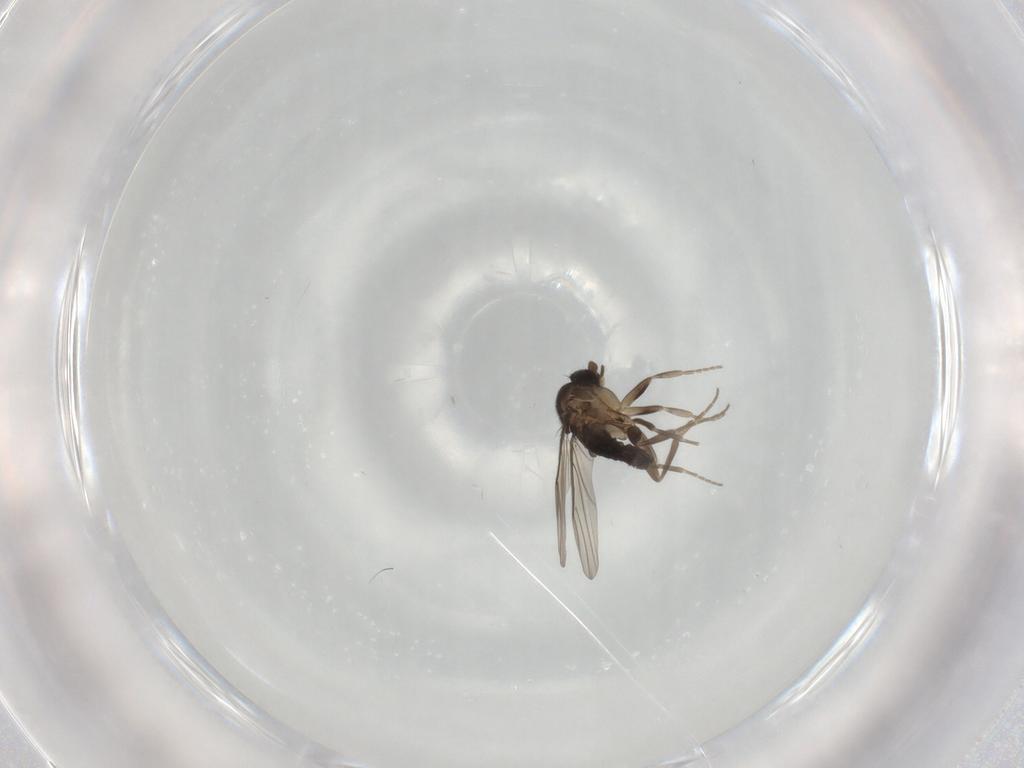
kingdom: Animalia
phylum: Arthropoda
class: Insecta
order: Diptera
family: Phoridae
